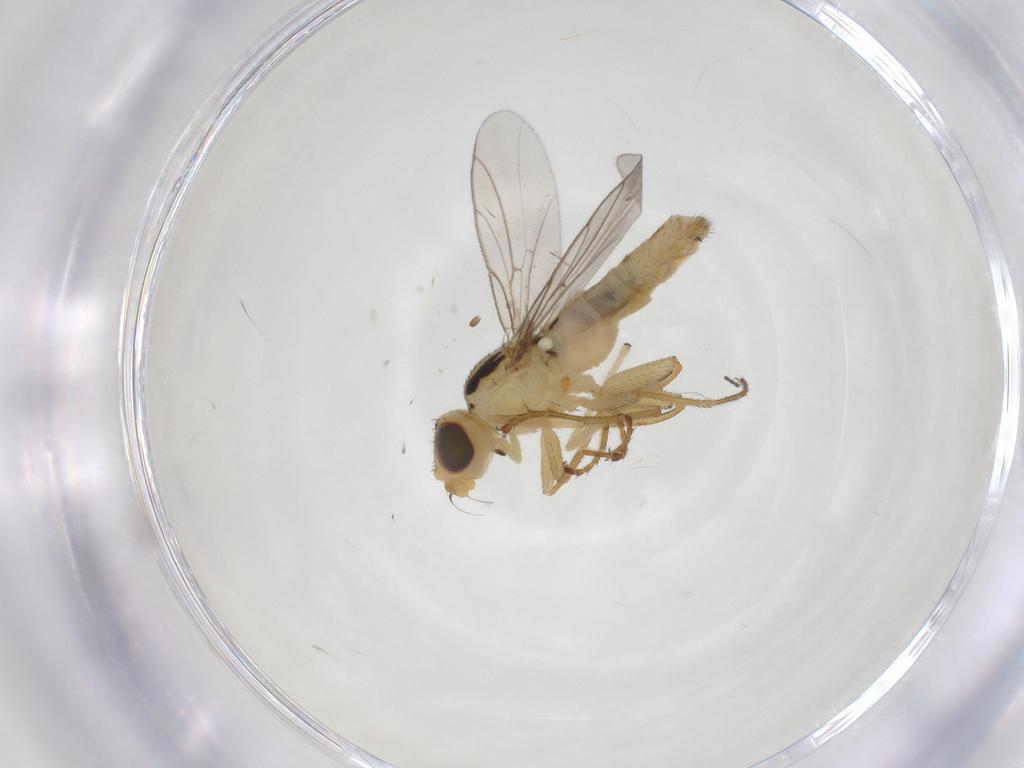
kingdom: Animalia
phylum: Arthropoda
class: Insecta
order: Diptera
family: Chloropidae
